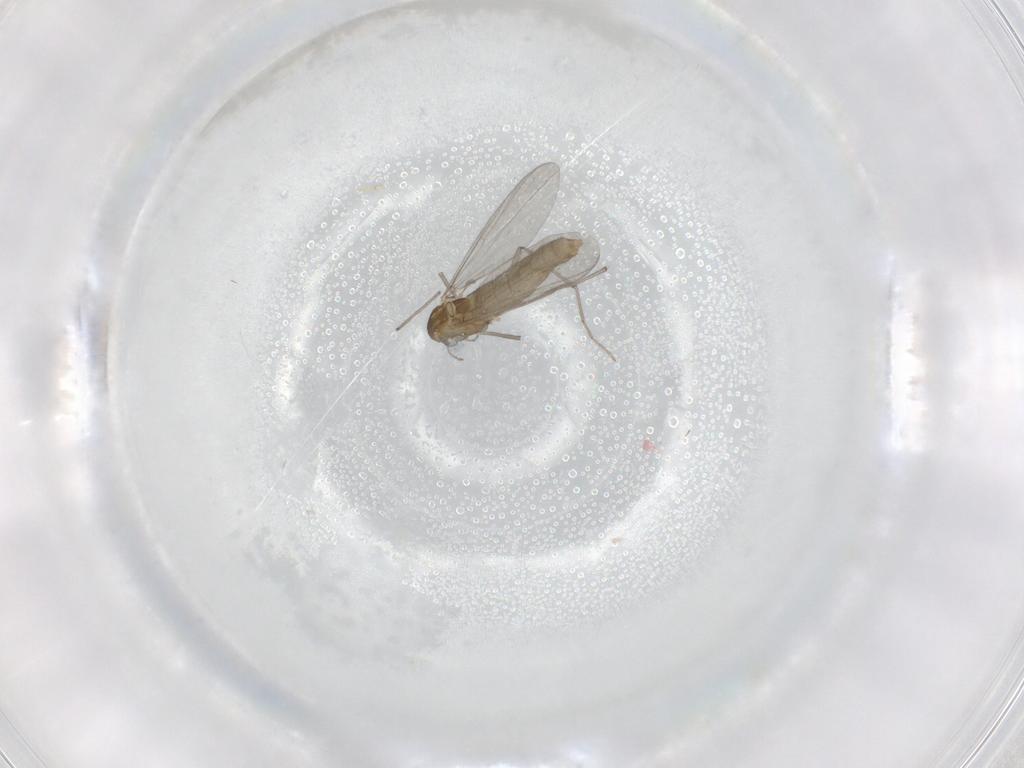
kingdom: Animalia
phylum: Arthropoda
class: Insecta
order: Diptera
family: Chironomidae
